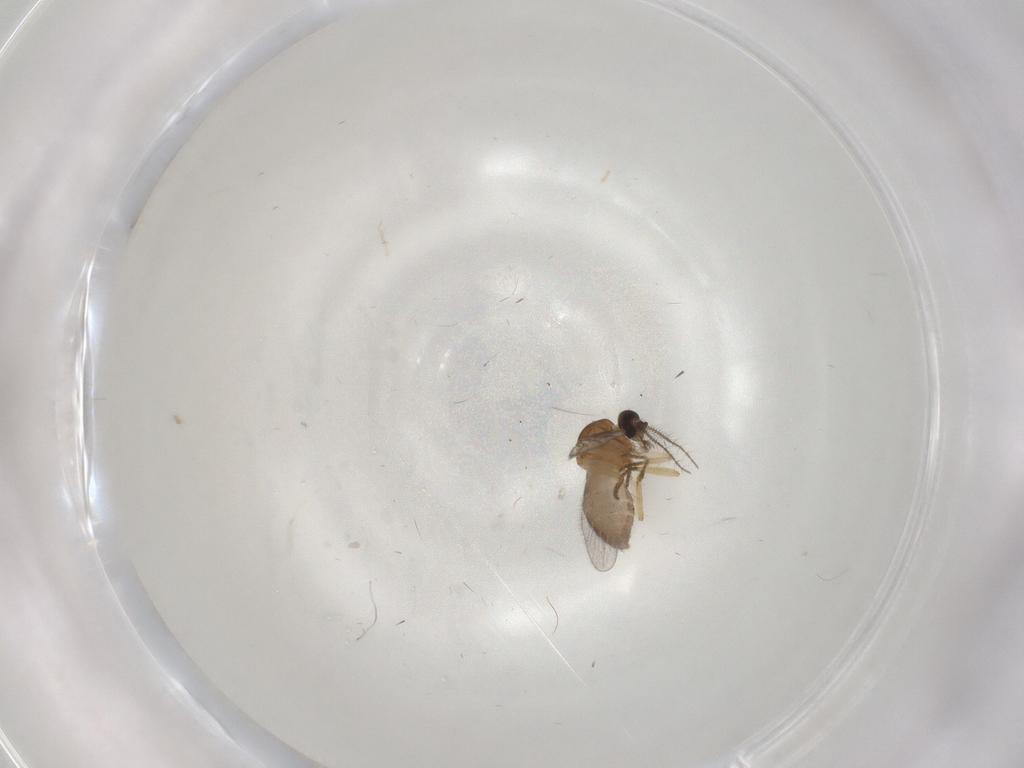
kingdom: Animalia
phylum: Arthropoda
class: Insecta
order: Diptera
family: Ceratopogonidae
